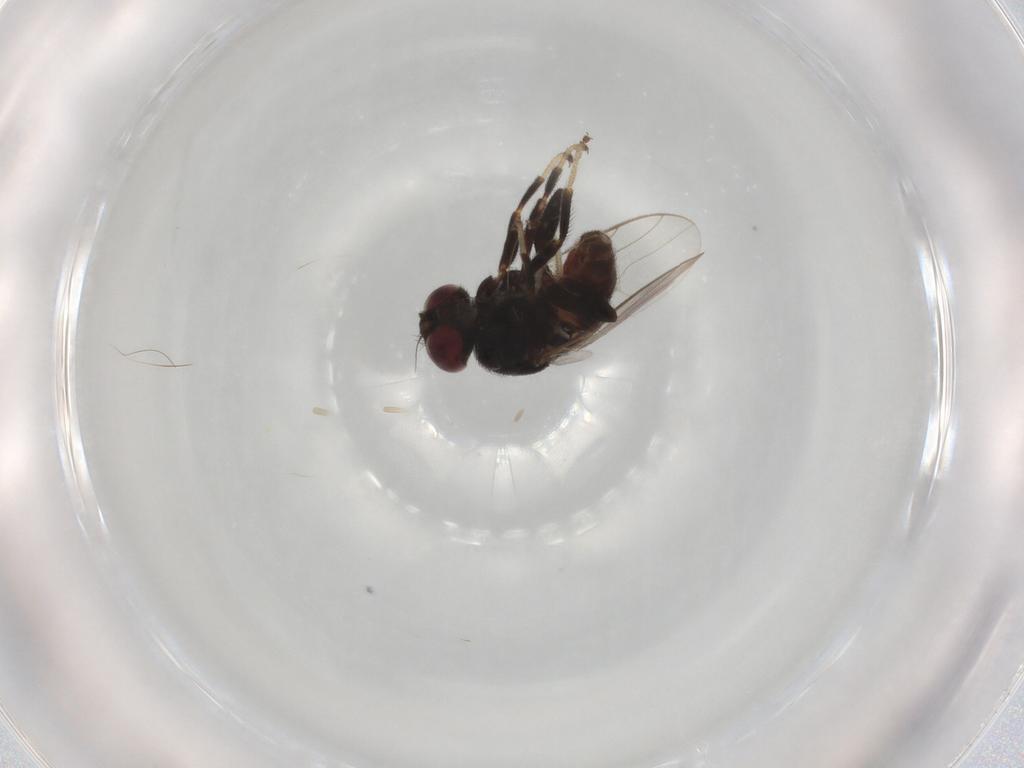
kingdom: Animalia
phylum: Arthropoda
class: Insecta
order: Diptera
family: Chloropidae
